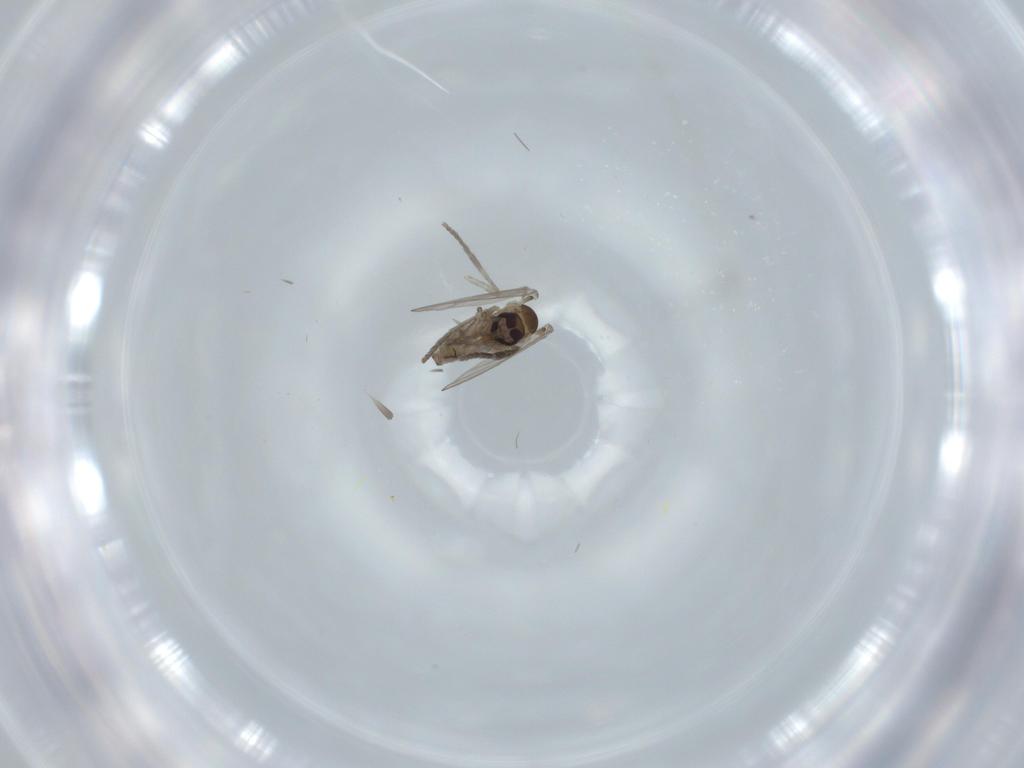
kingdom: Animalia
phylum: Arthropoda
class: Insecta
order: Diptera
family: Psychodidae
